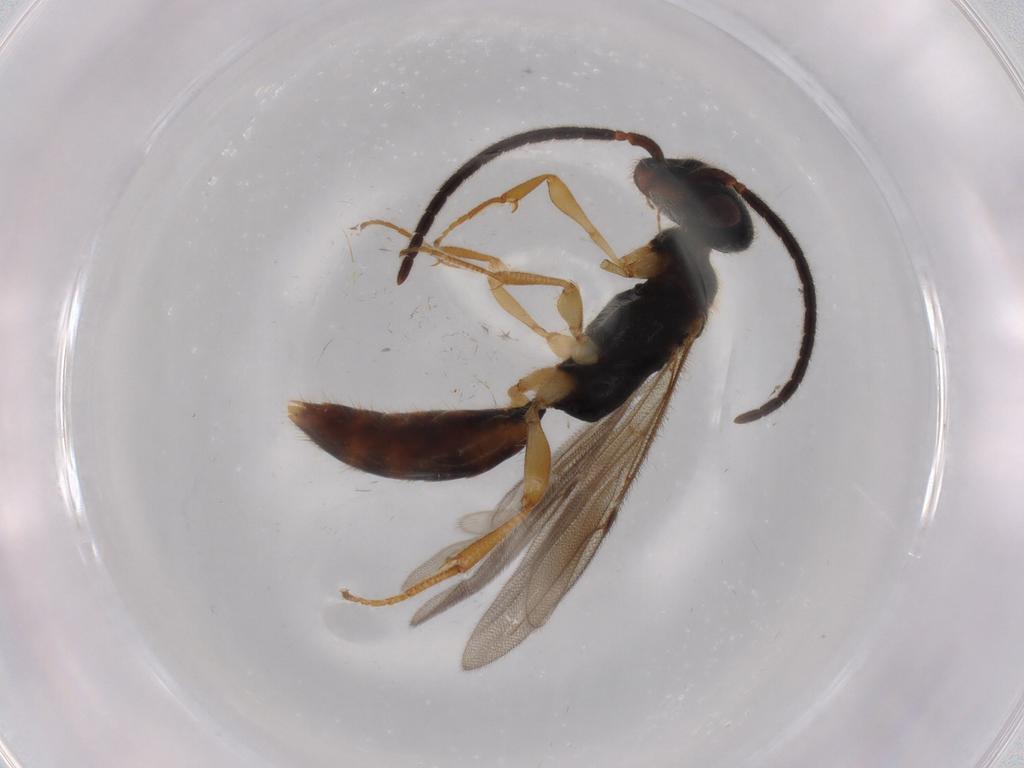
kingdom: Animalia
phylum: Arthropoda
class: Insecta
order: Hymenoptera
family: Bethylidae
